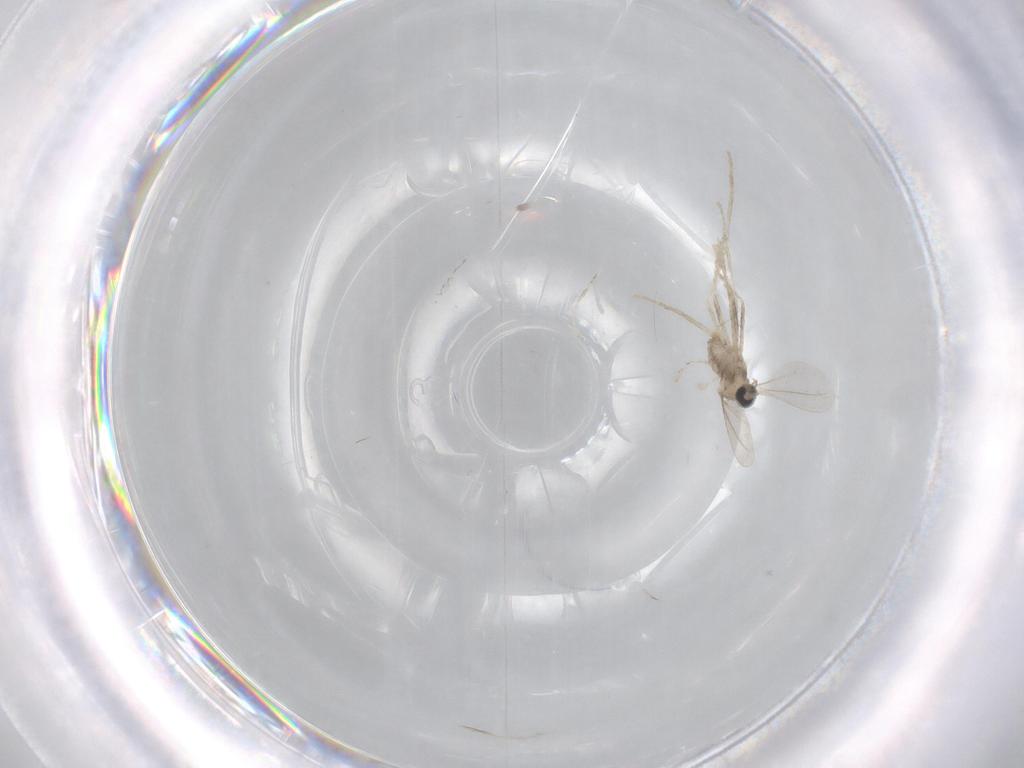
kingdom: Animalia
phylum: Arthropoda
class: Insecta
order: Diptera
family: Cecidomyiidae
